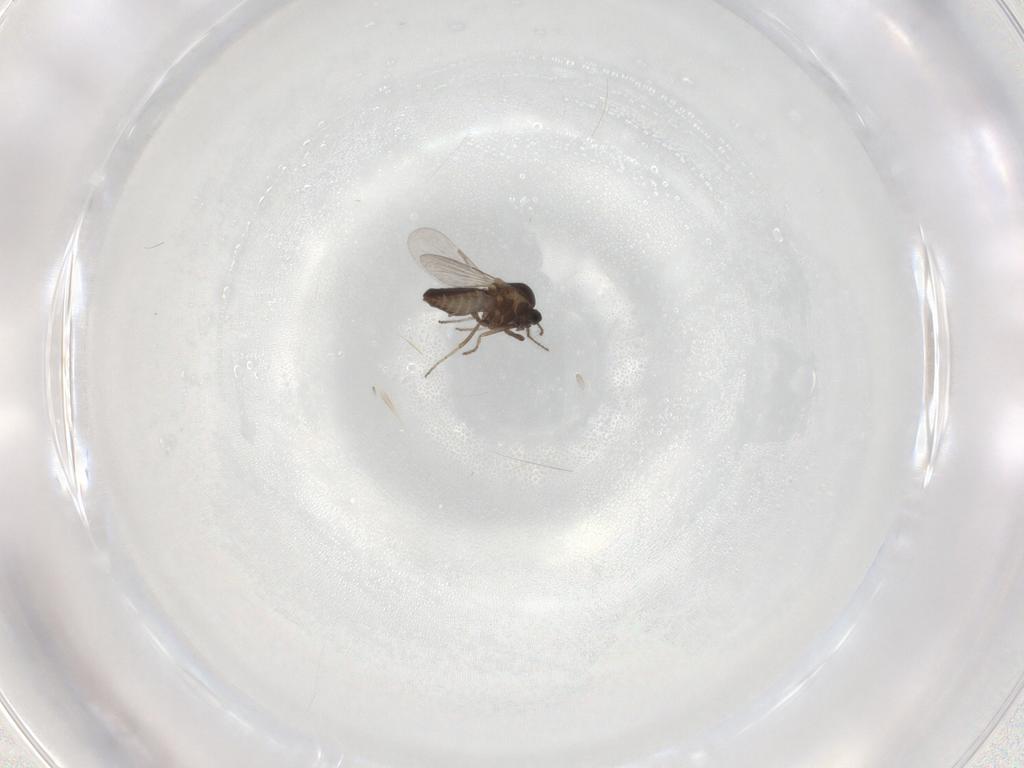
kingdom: Animalia
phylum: Arthropoda
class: Insecta
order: Diptera
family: Ceratopogonidae
